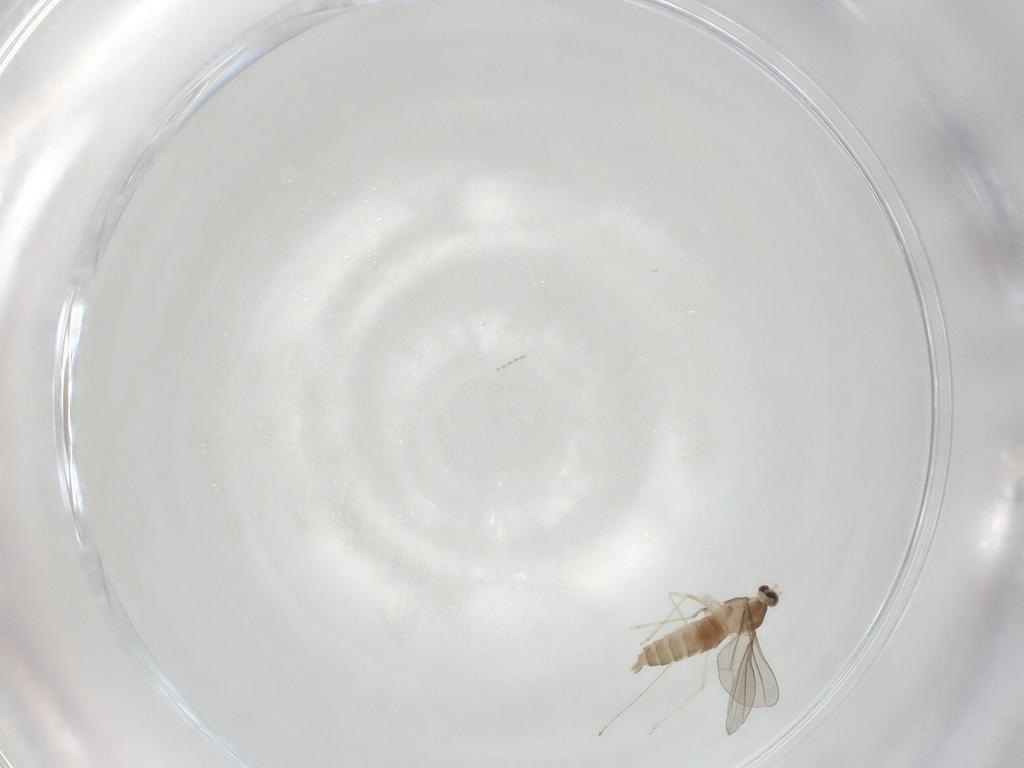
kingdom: Animalia
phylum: Arthropoda
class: Insecta
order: Diptera
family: Cecidomyiidae
